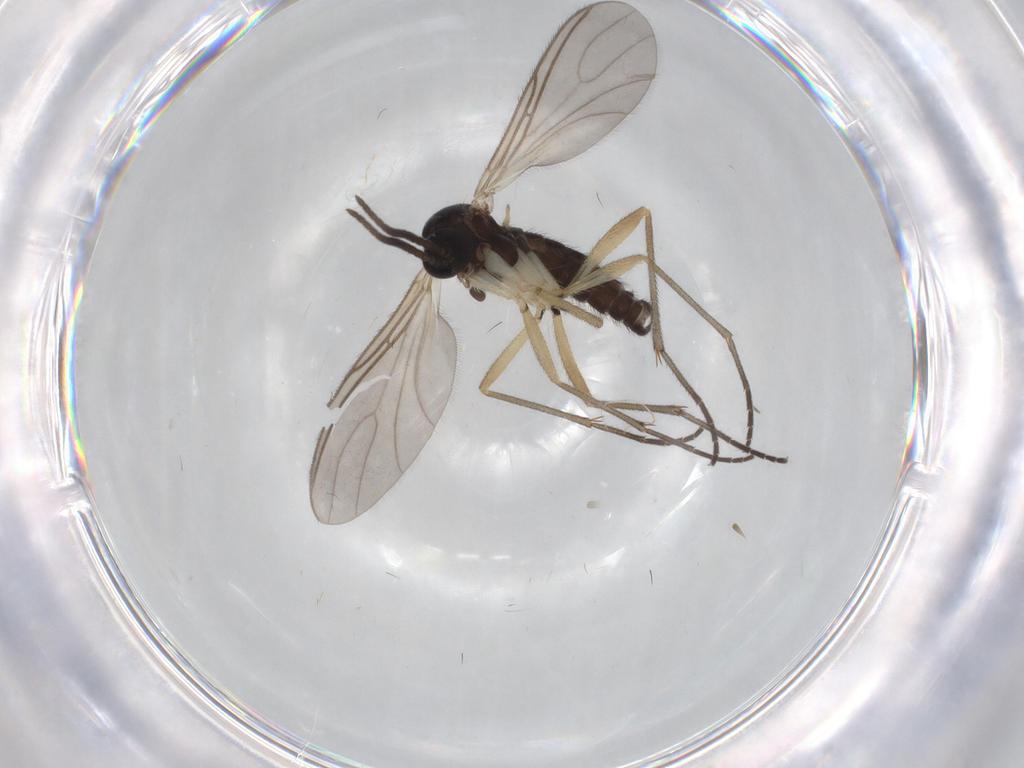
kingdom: Animalia
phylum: Arthropoda
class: Insecta
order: Diptera
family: Sciaridae
